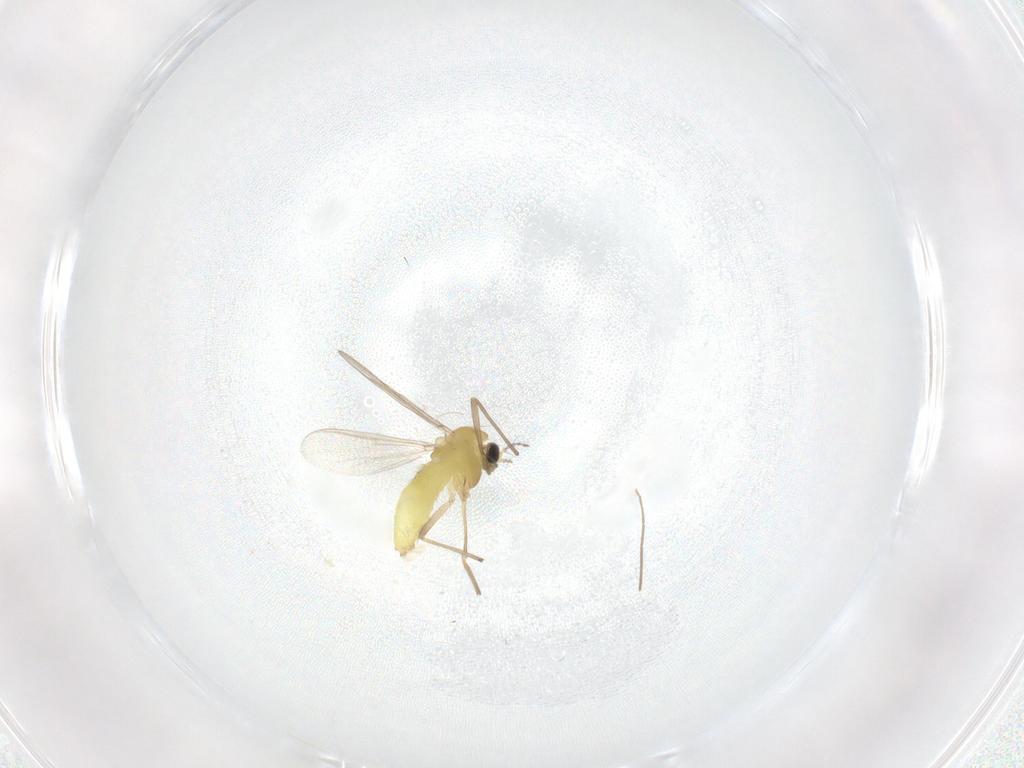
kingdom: Animalia
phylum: Arthropoda
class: Insecta
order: Diptera
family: Chironomidae
